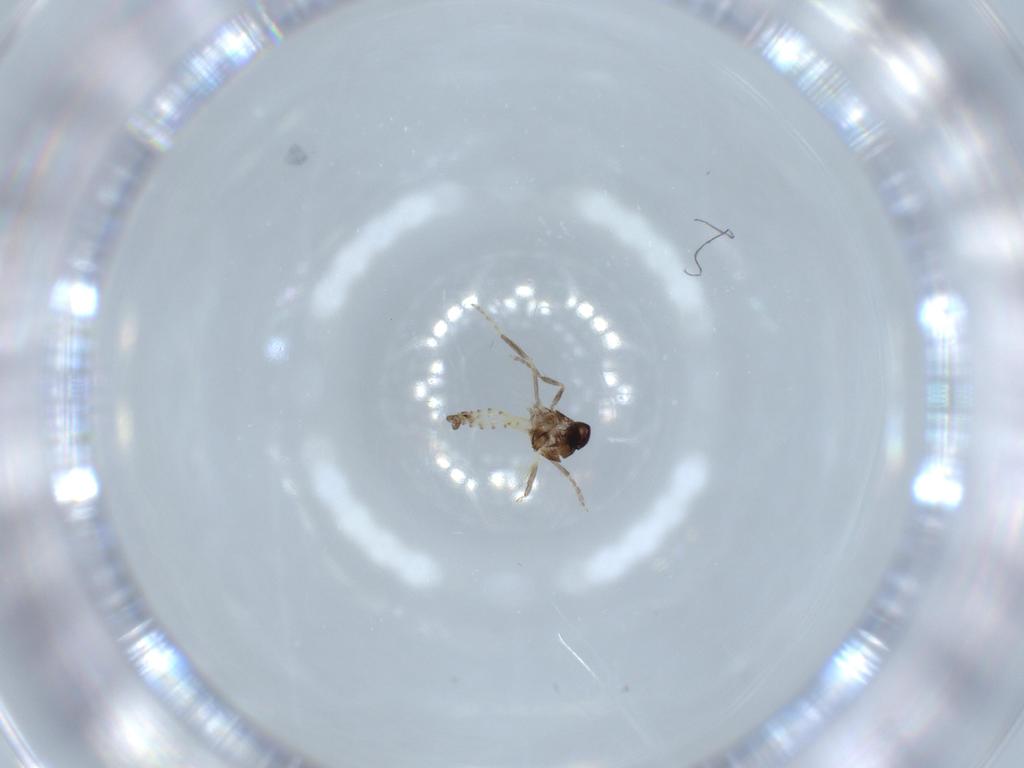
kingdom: Animalia
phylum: Arthropoda
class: Insecta
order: Diptera
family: Ceratopogonidae
